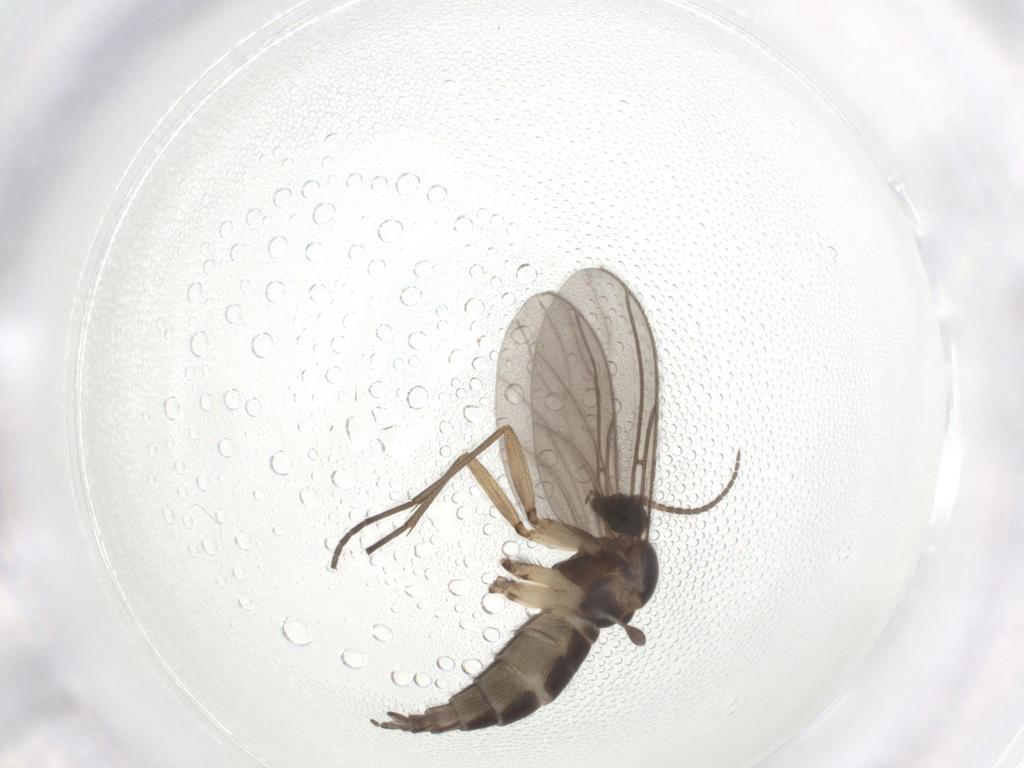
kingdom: Animalia
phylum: Arthropoda
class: Insecta
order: Diptera
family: Sciaridae
